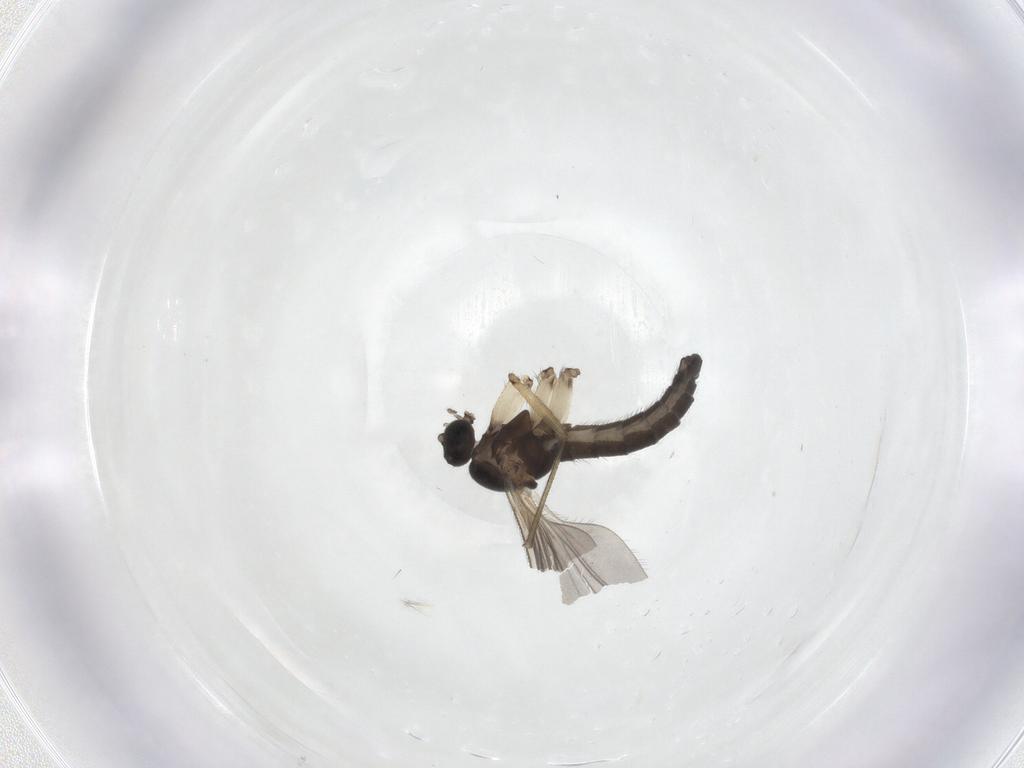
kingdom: Animalia
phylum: Arthropoda
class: Insecta
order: Diptera
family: Sciaridae
